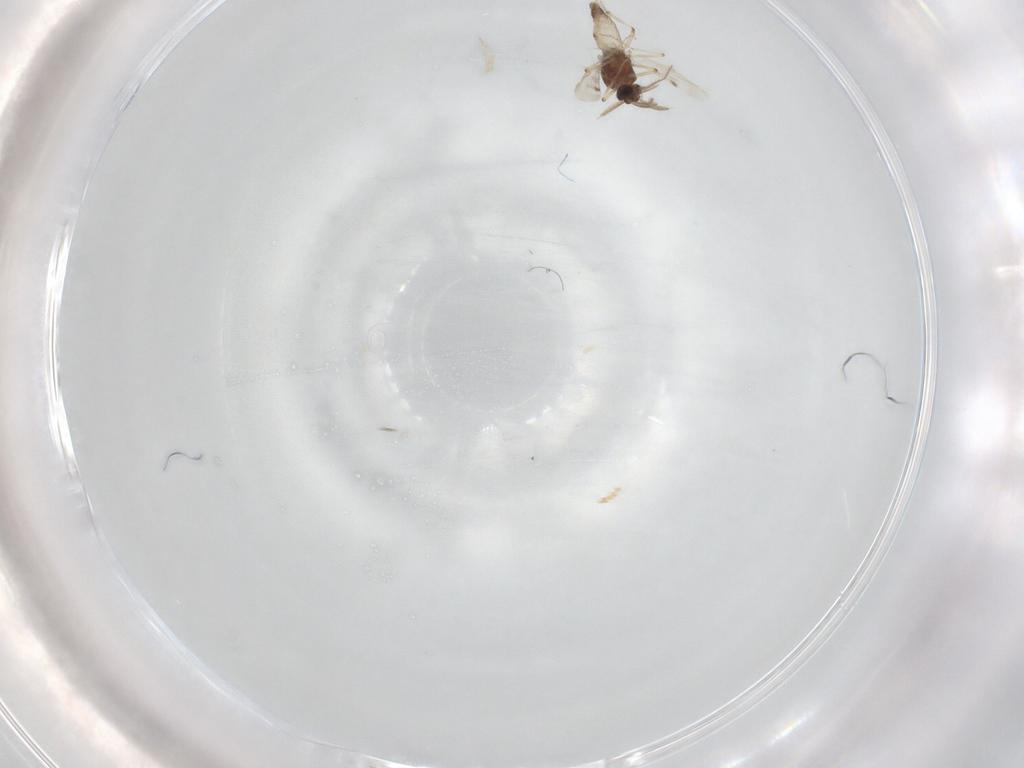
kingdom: Animalia
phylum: Arthropoda
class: Insecta
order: Diptera
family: Ceratopogonidae
